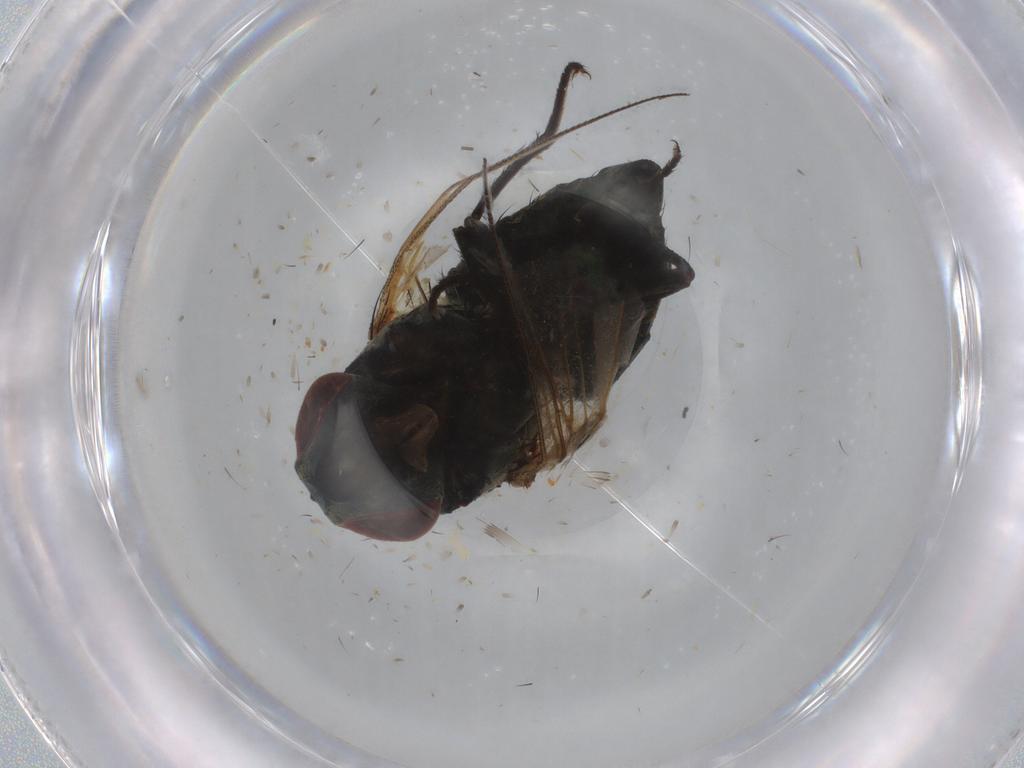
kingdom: Animalia
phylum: Arthropoda
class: Insecta
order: Diptera
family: Muscidae
